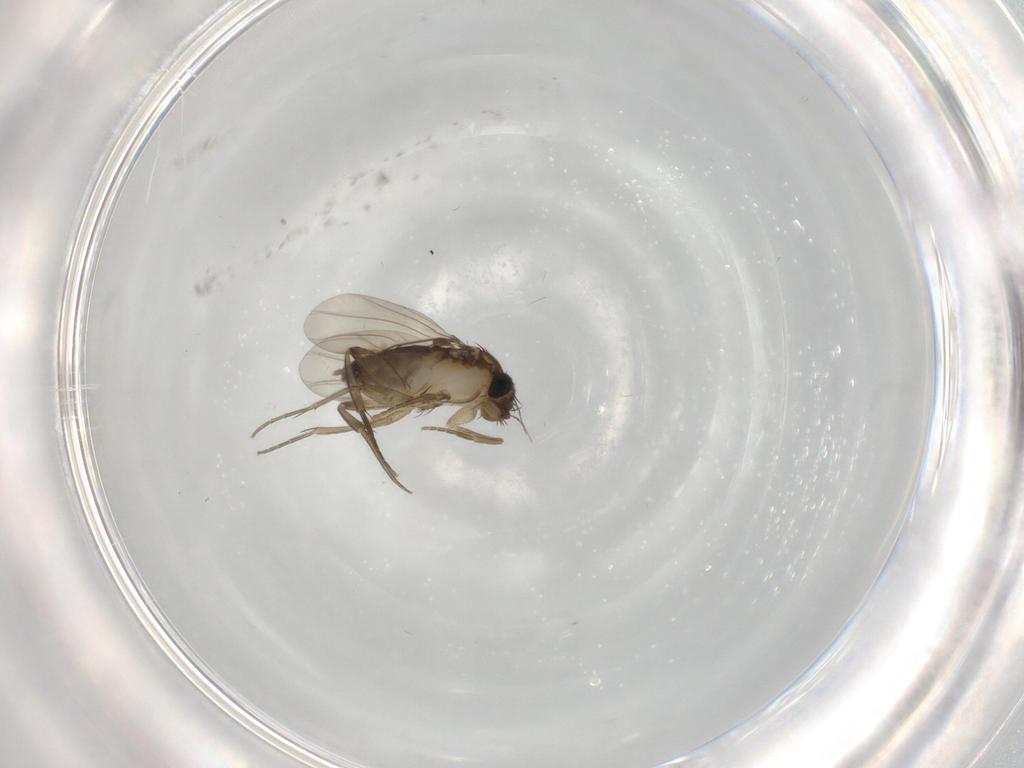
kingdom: Animalia
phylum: Arthropoda
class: Insecta
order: Diptera
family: Phoridae
